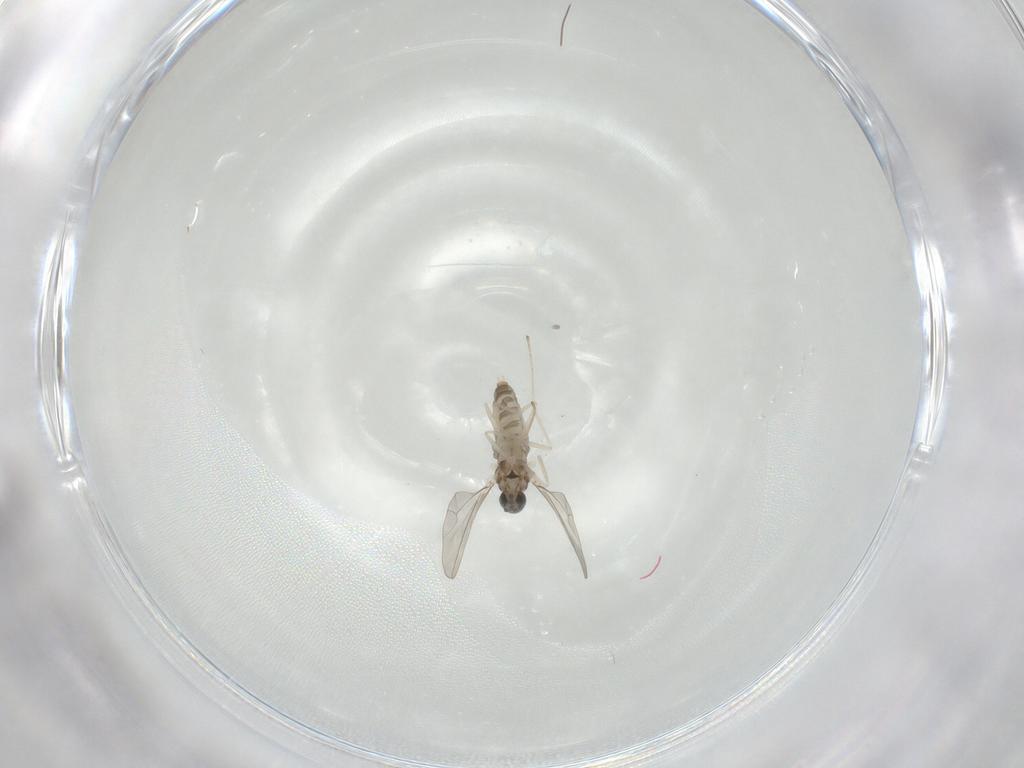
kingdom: Animalia
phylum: Arthropoda
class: Insecta
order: Diptera
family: Cecidomyiidae
